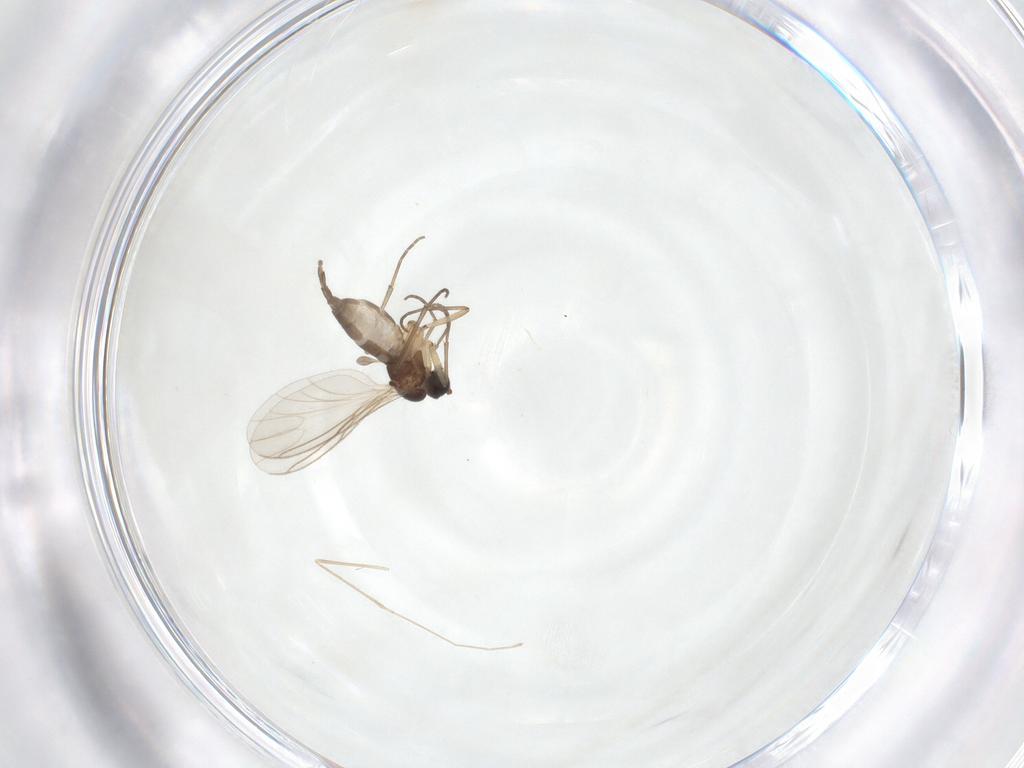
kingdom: Animalia
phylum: Arthropoda
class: Insecta
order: Diptera
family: Sciaridae
